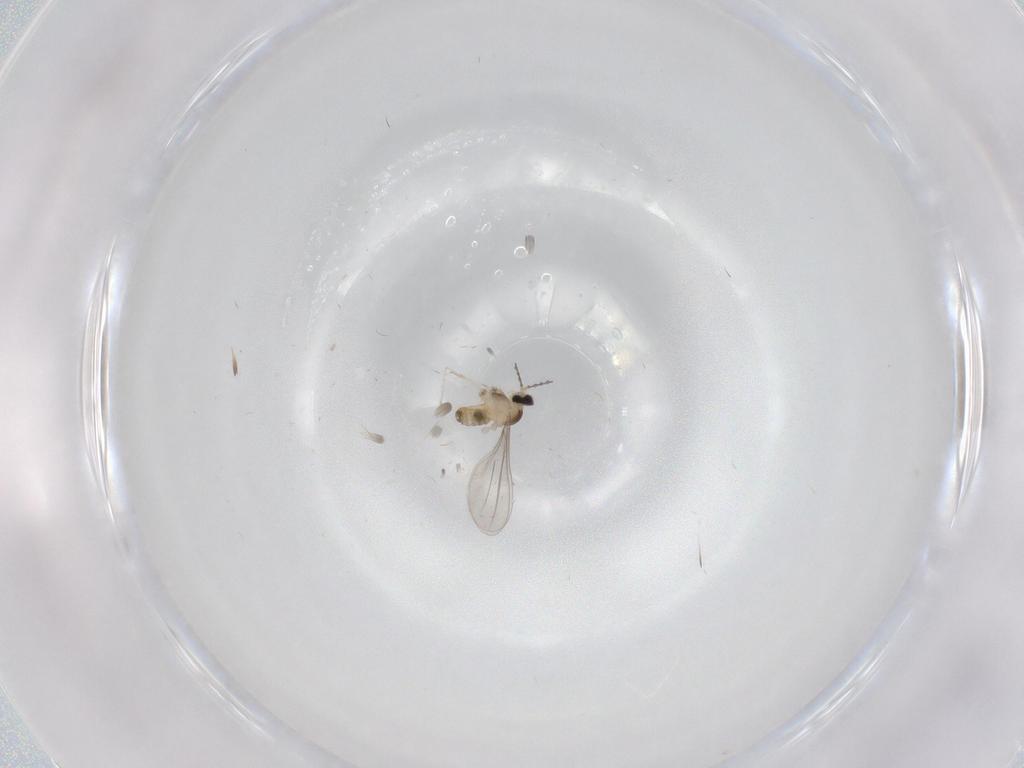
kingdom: Animalia
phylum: Arthropoda
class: Insecta
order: Diptera
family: Cecidomyiidae
